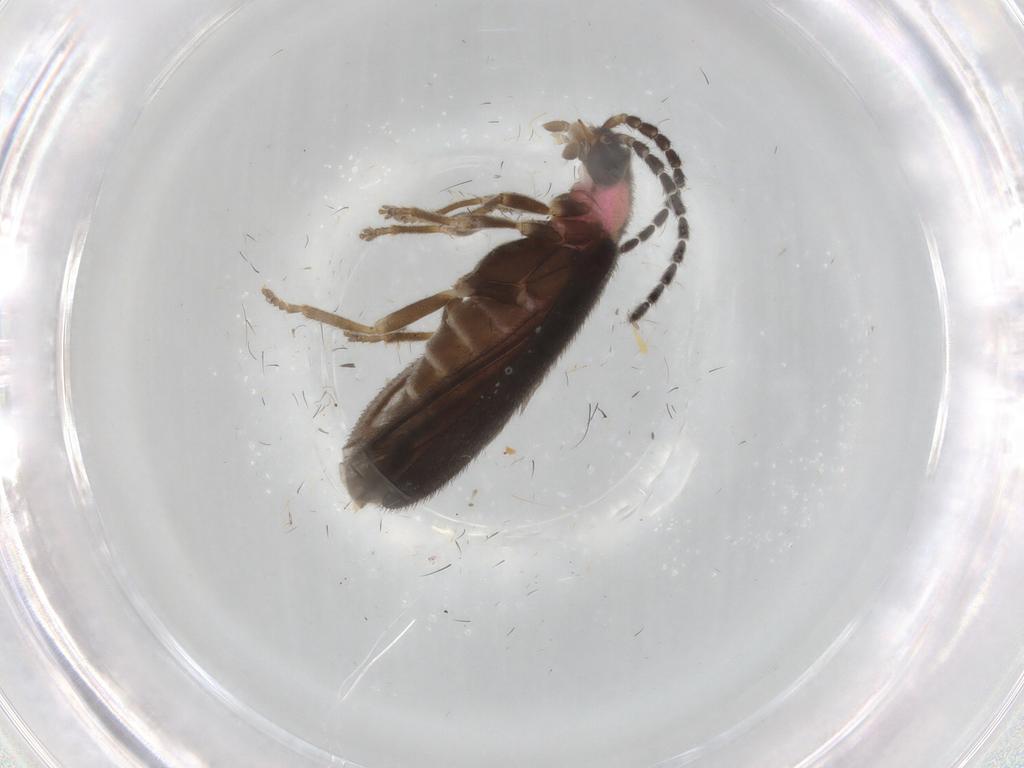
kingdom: Animalia
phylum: Arthropoda
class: Insecta
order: Coleoptera
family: Lampyridae
